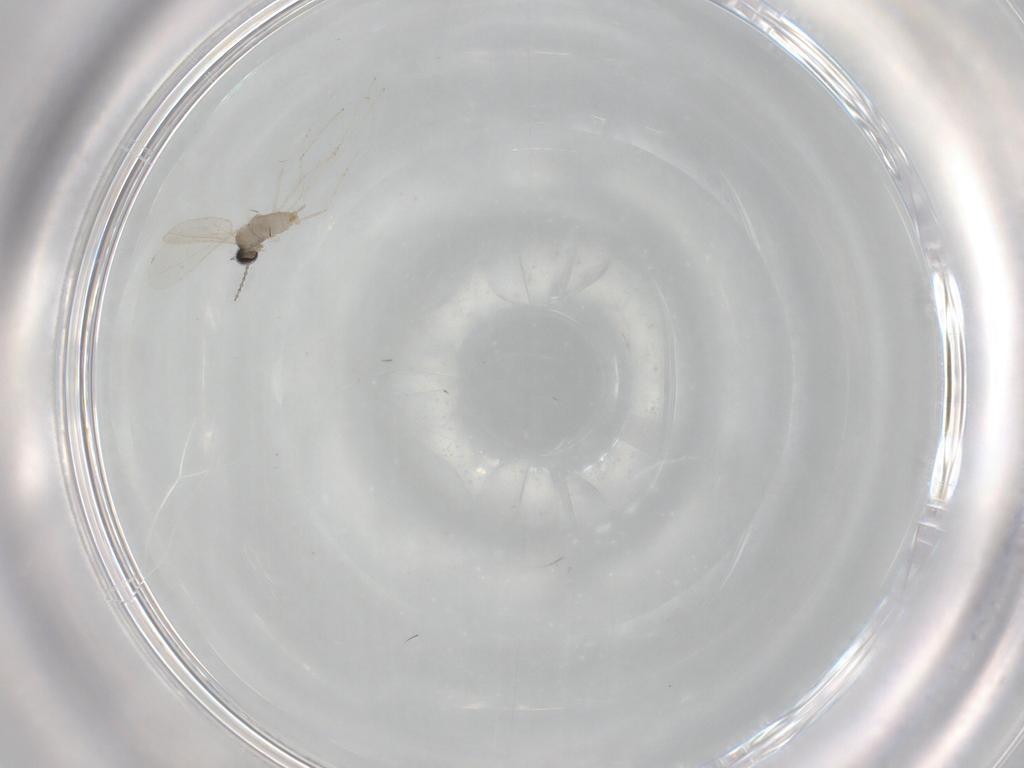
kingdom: Animalia
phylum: Arthropoda
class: Insecta
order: Diptera
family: Cecidomyiidae
